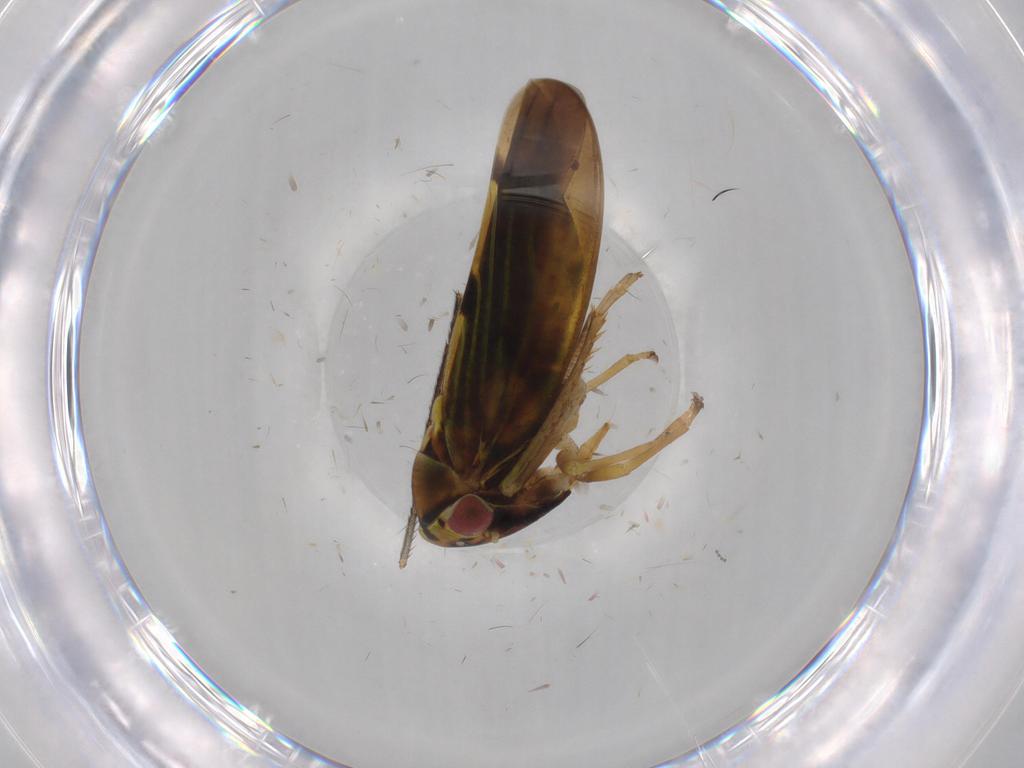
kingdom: Animalia
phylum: Arthropoda
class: Insecta
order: Hemiptera
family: Cicadellidae
